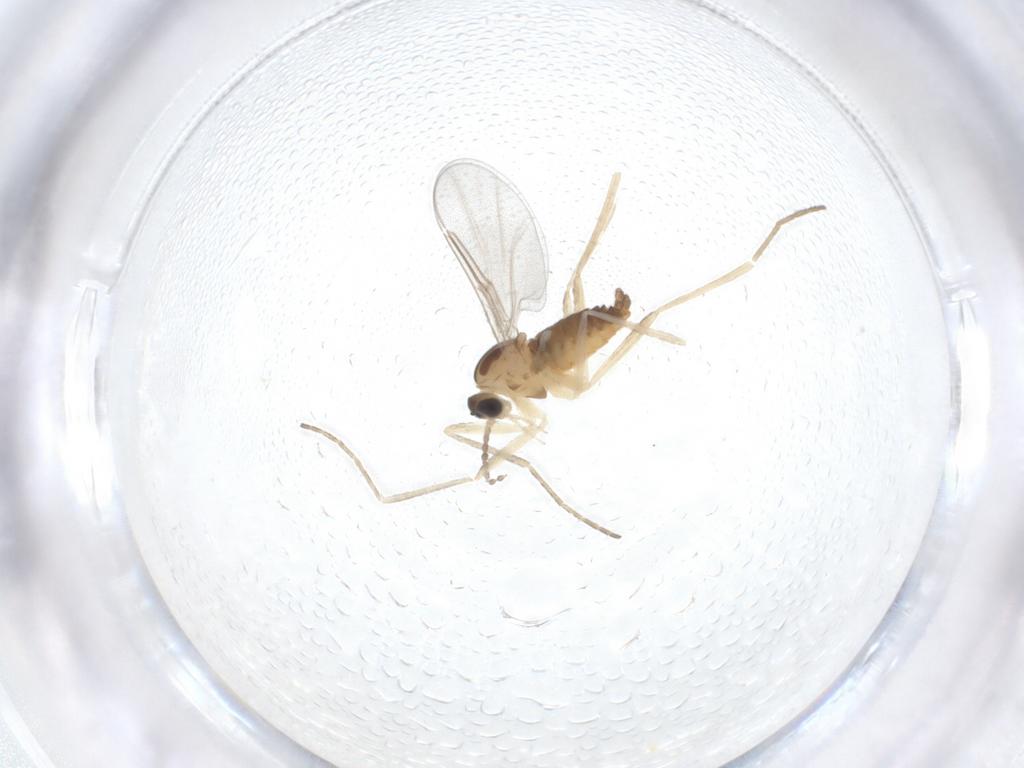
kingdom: Animalia
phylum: Arthropoda
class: Insecta
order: Diptera
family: Cecidomyiidae
